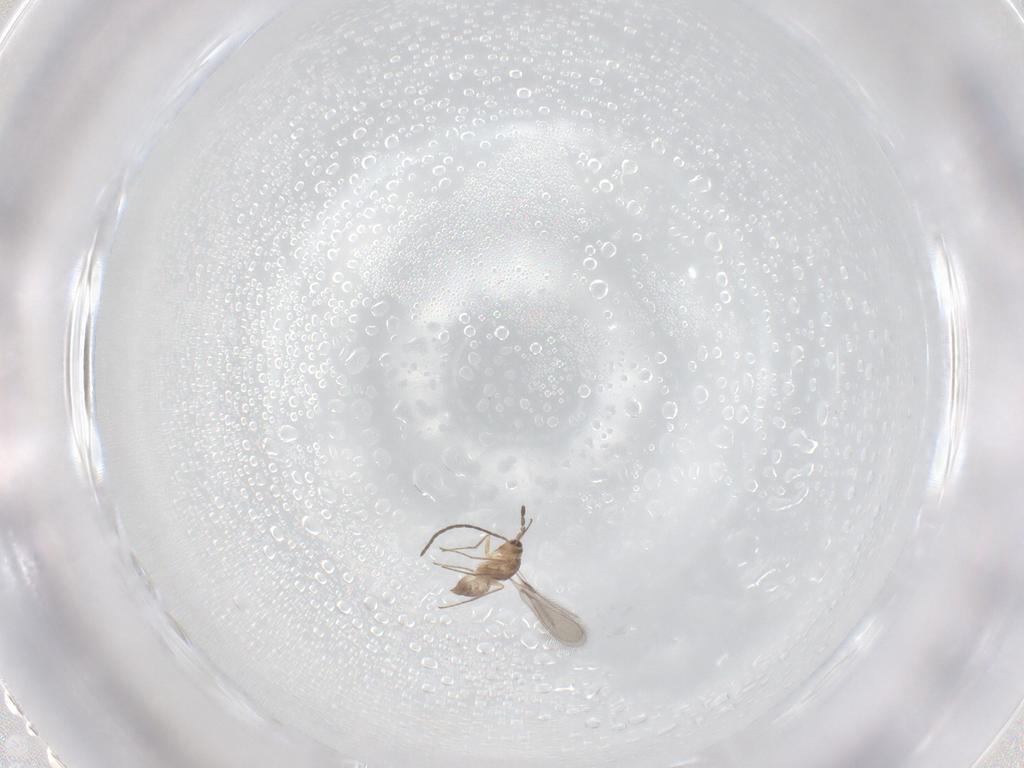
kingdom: Animalia
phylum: Arthropoda
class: Insecta
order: Hymenoptera
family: Mymaridae
